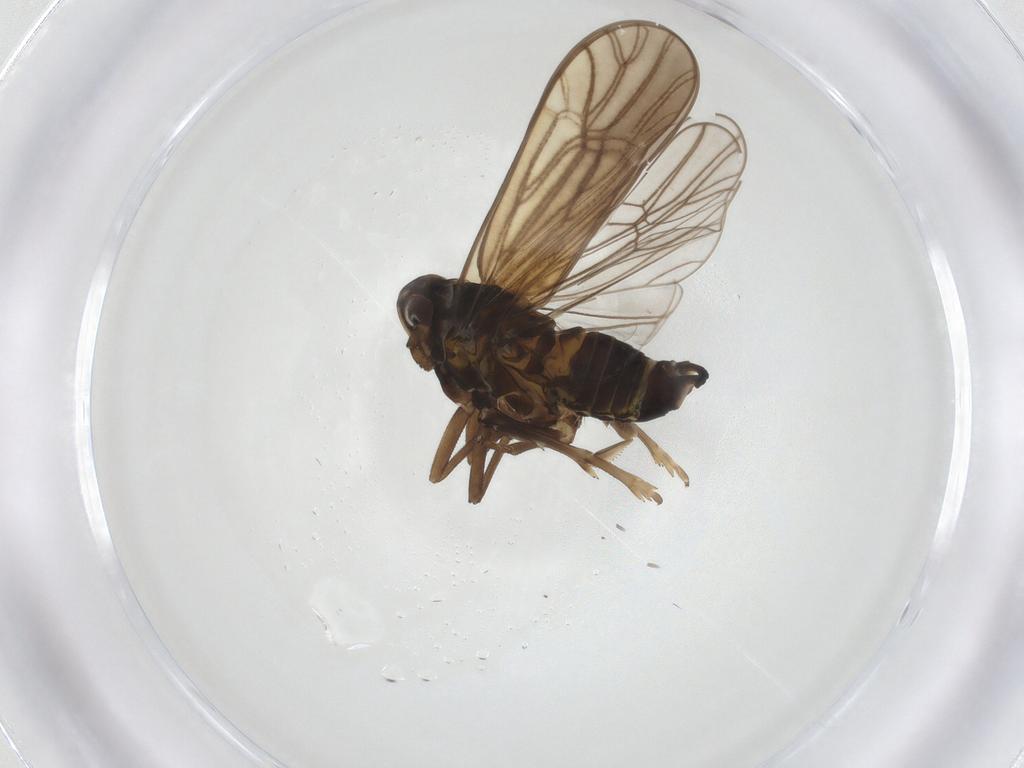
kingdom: Animalia
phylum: Arthropoda
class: Insecta
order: Hemiptera
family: Delphacidae
